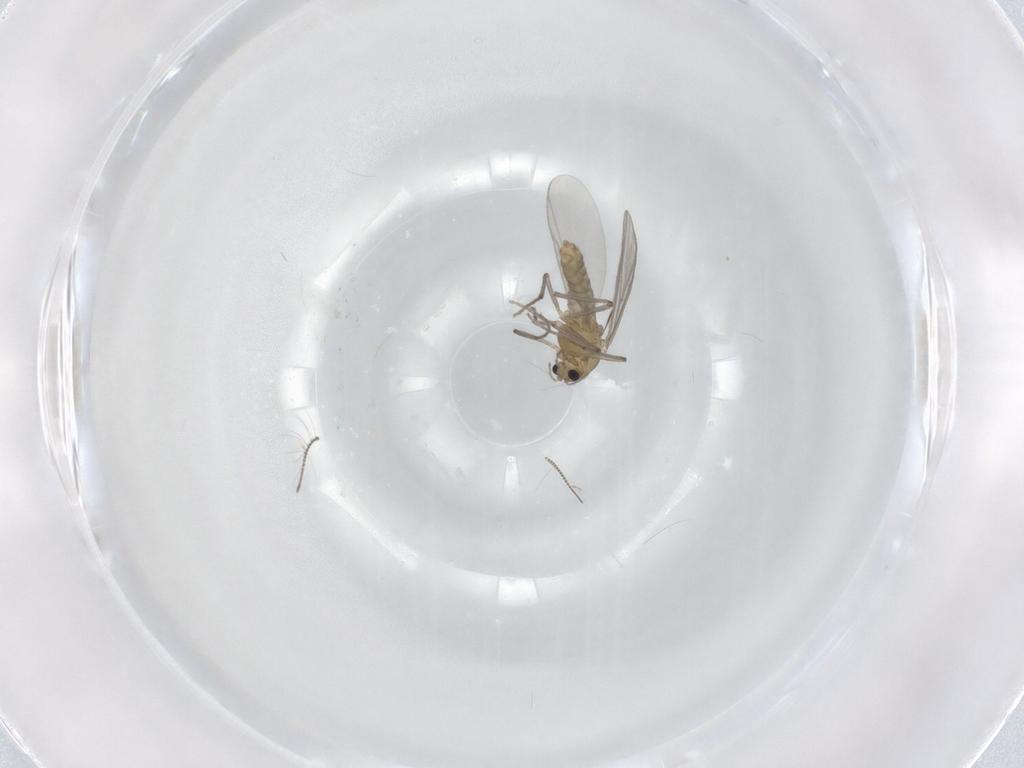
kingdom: Animalia
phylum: Arthropoda
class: Insecta
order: Diptera
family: Chironomidae
